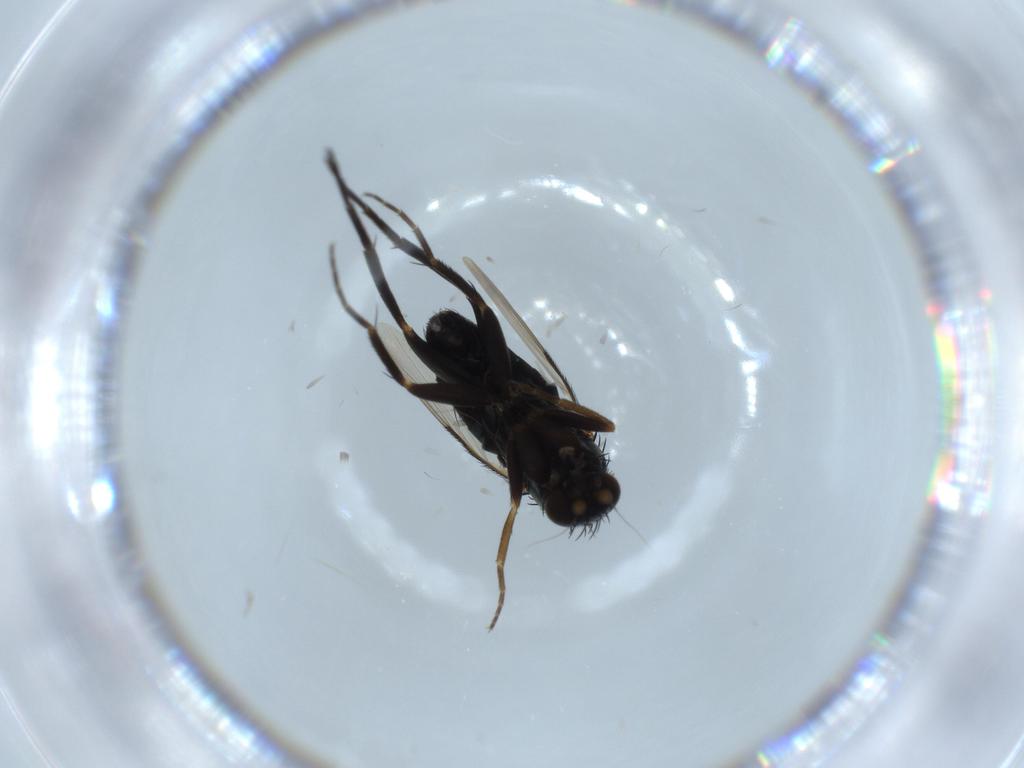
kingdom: Animalia
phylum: Arthropoda
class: Insecta
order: Diptera
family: Phoridae
